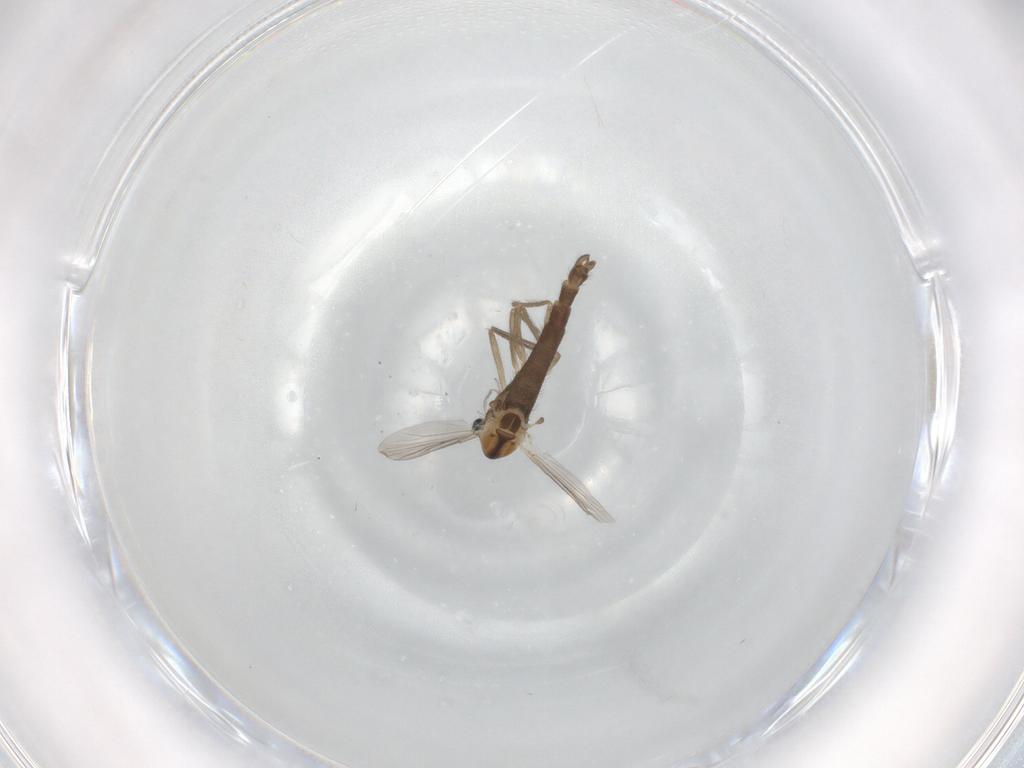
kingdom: Animalia
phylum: Arthropoda
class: Insecta
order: Diptera
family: Chironomidae
